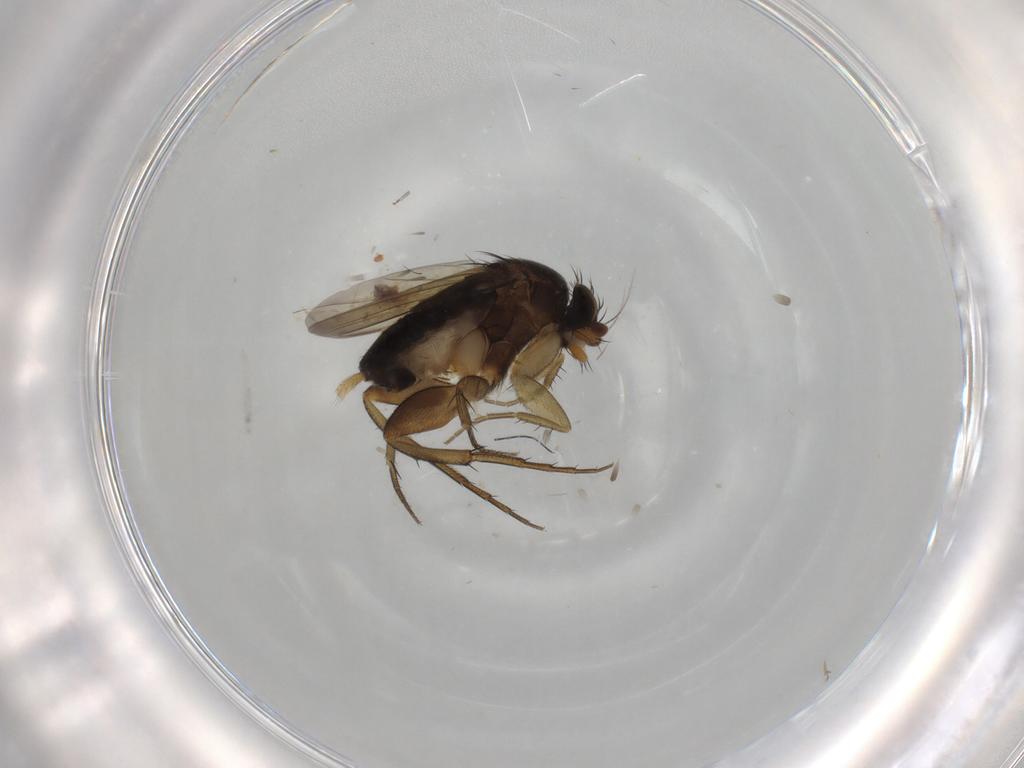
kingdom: Animalia
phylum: Arthropoda
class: Insecta
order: Diptera
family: Phoridae
